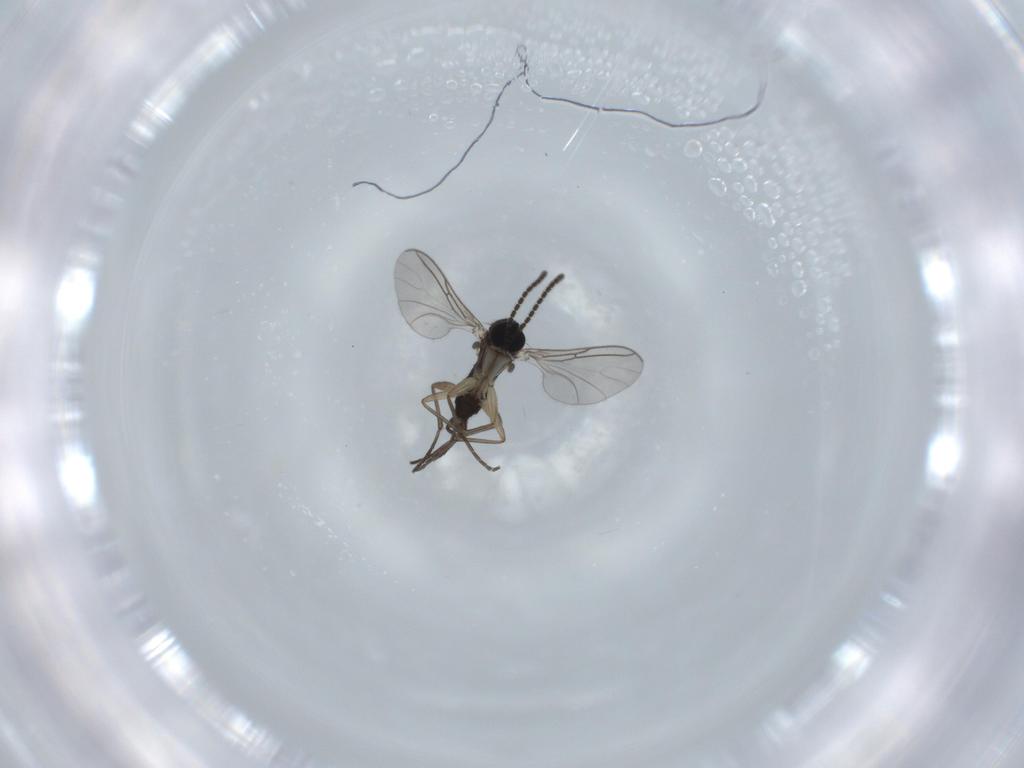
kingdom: Animalia
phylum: Arthropoda
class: Insecta
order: Diptera
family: Sciaridae
